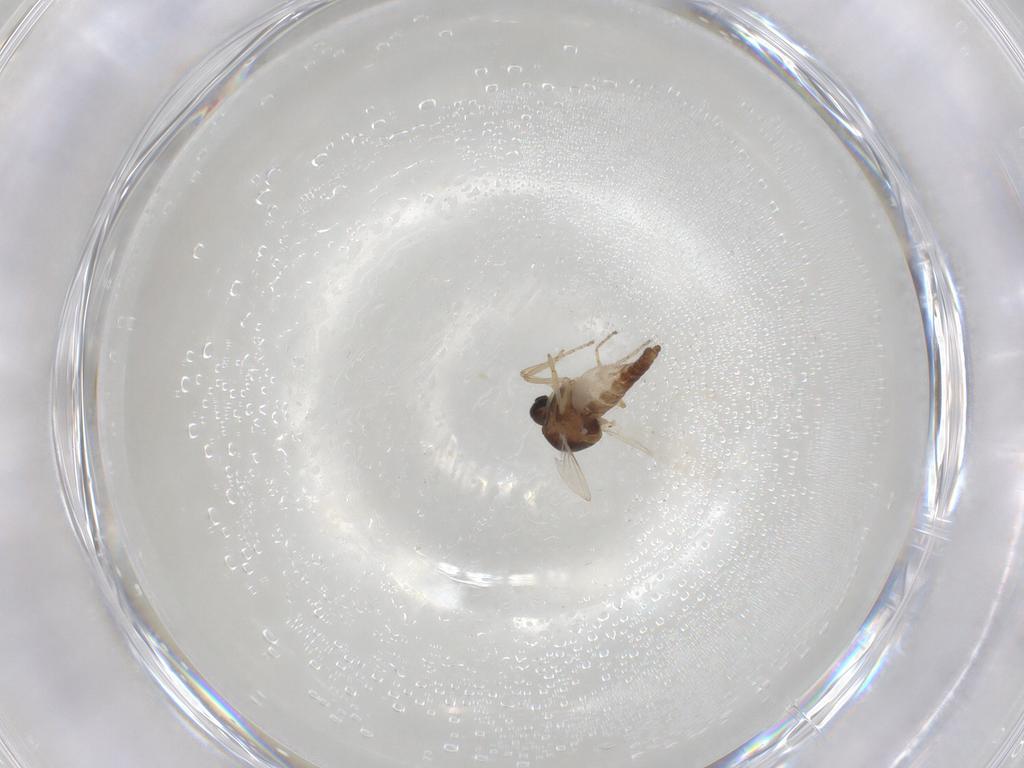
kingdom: Animalia
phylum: Arthropoda
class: Insecta
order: Diptera
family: Ceratopogonidae
